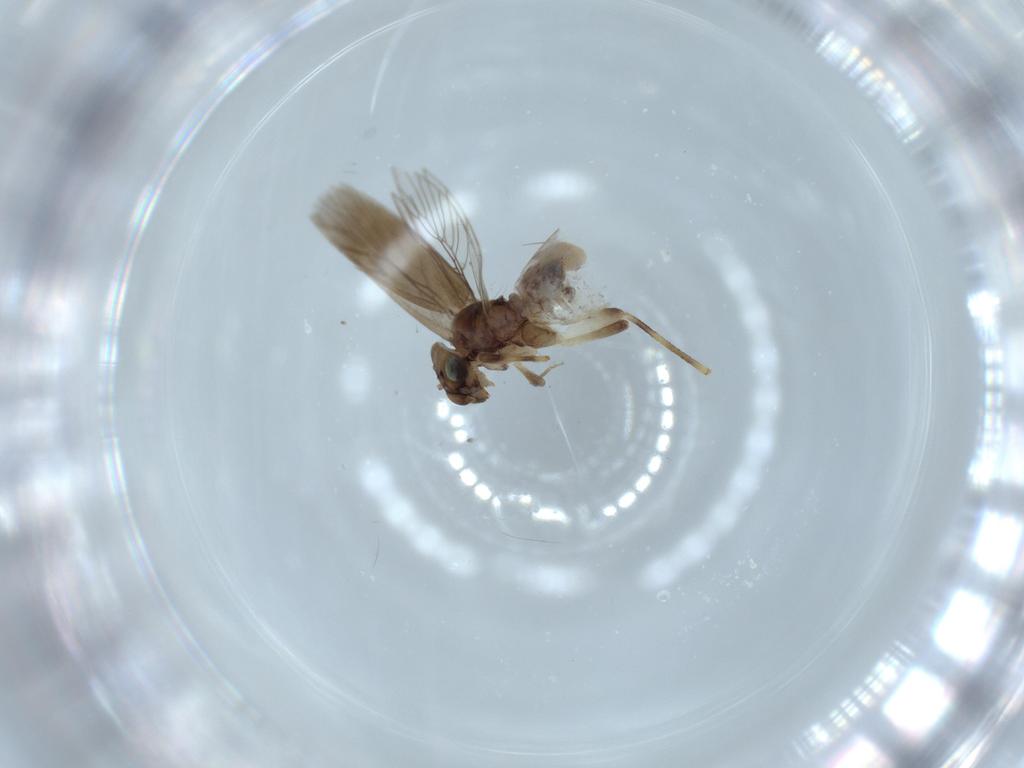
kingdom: Animalia
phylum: Arthropoda
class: Insecta
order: Psocodea
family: Lepidopsocidae
